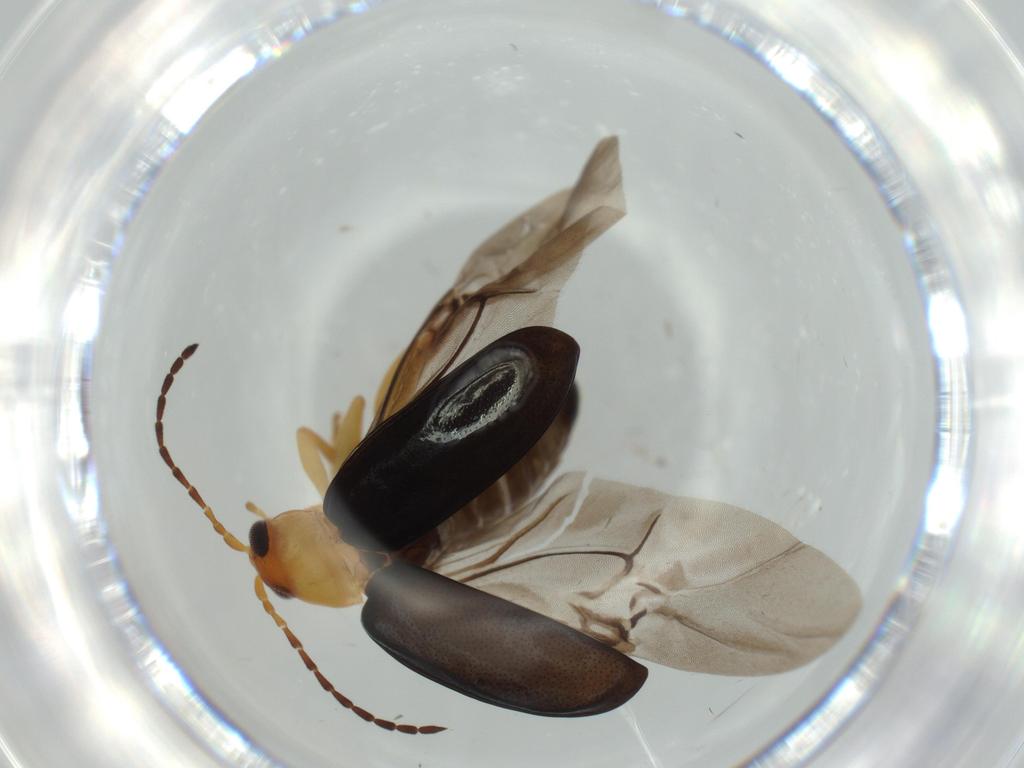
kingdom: Animalia
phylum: Arthropoda
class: Insecta
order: Coleoptera
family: Chrysomelidae
